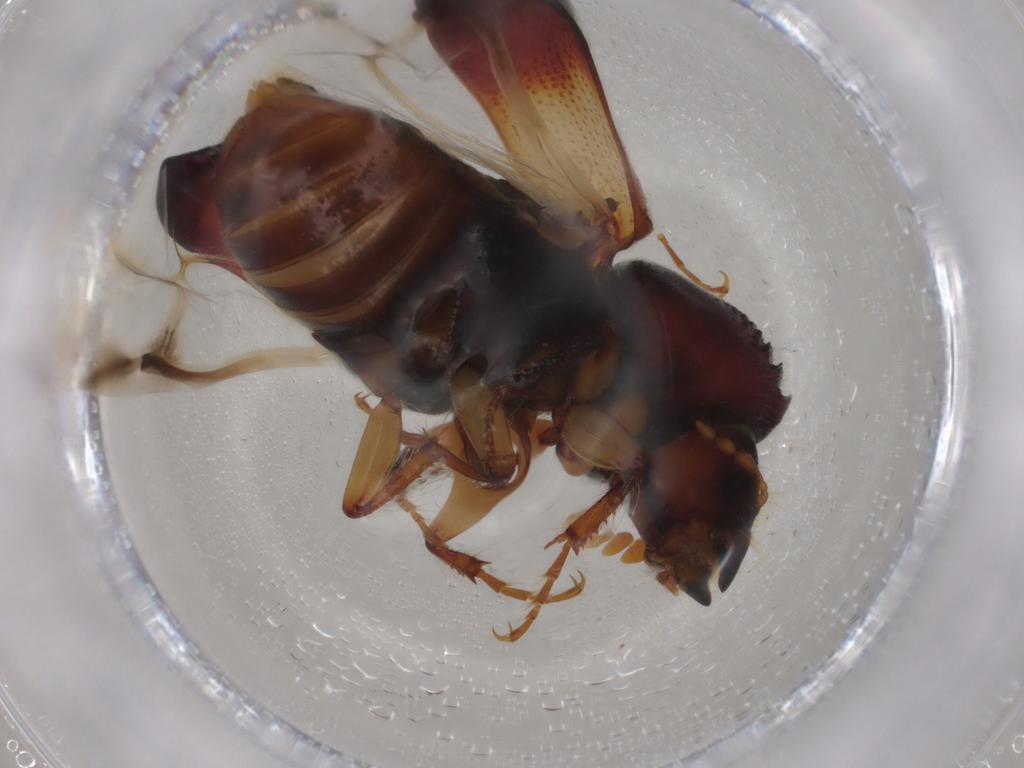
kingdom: Animalia
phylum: Arthropoda
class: Insecta
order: Coleoptera
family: Bostrichidae
